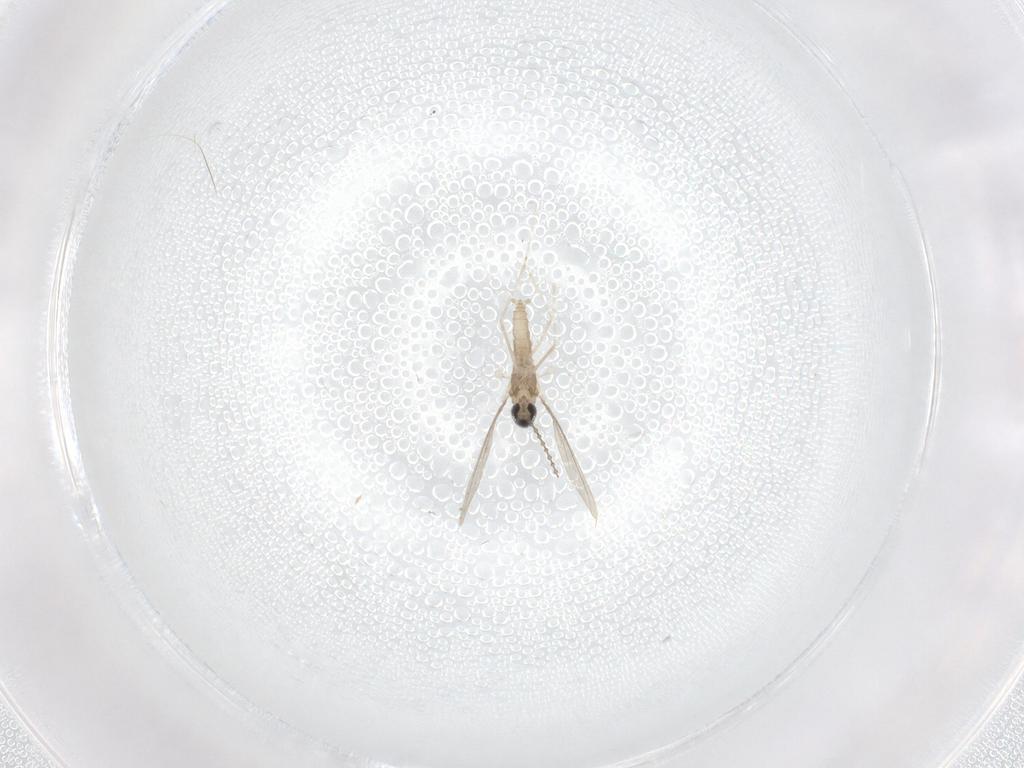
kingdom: Animalia
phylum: Arthropoda
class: Insecta
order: Diptera
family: Cecidomyiidae
